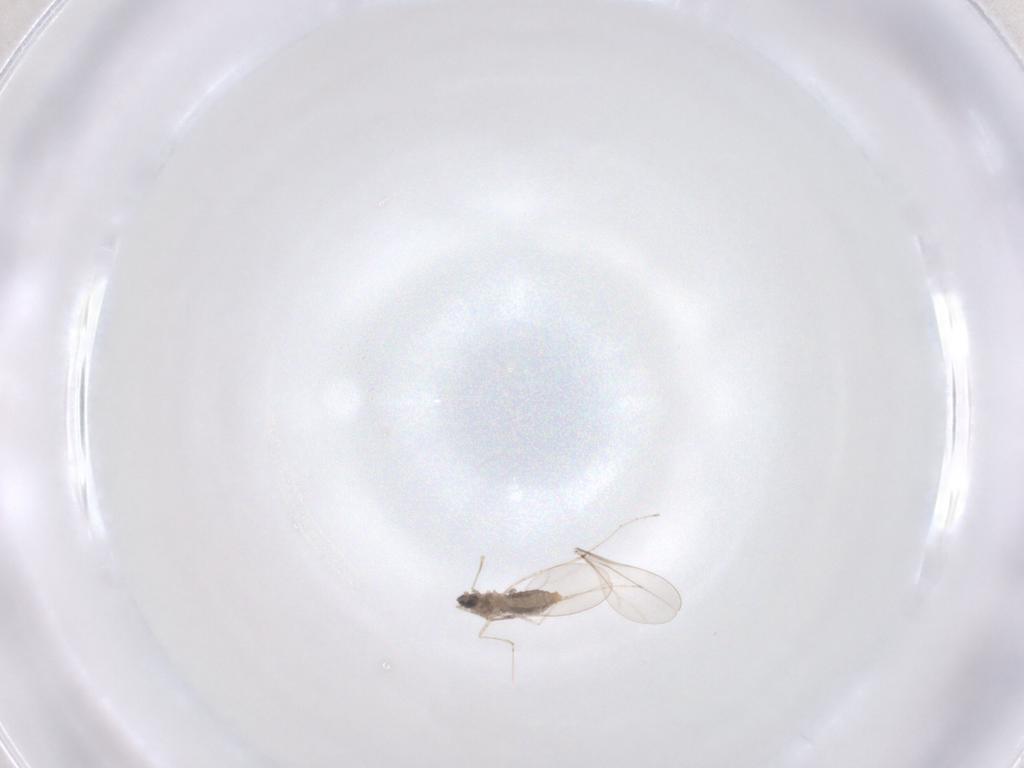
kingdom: Animalia
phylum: Arthropoda
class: Insecta
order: Diptera
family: Cecidomyiidae
